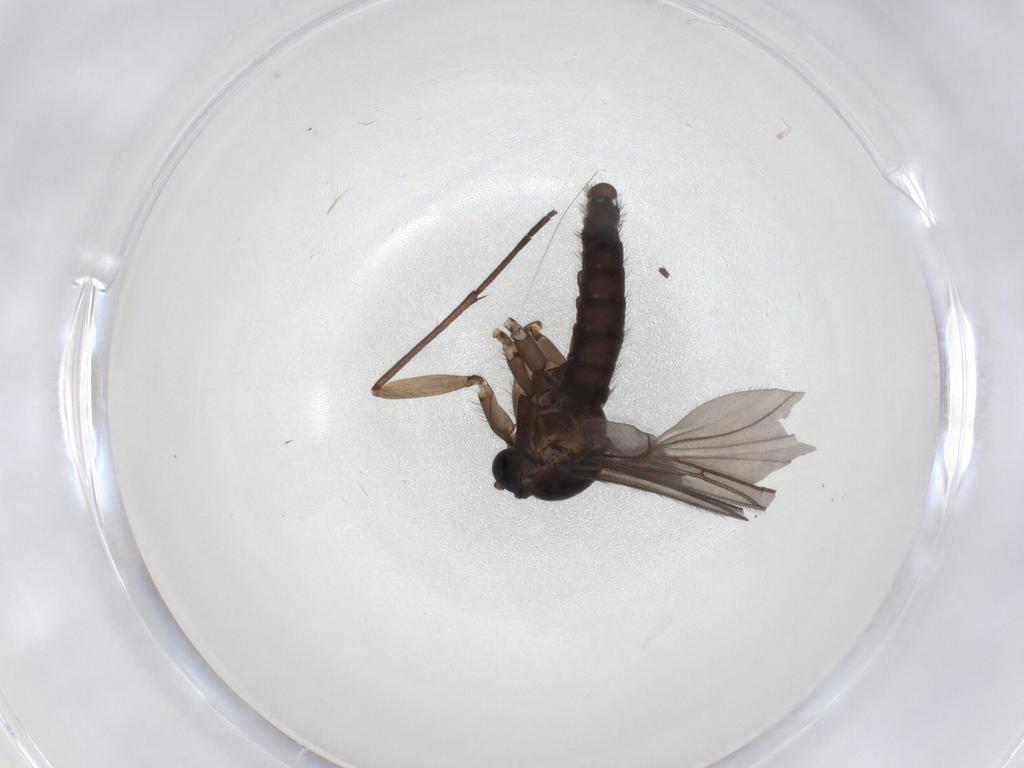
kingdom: Animalia
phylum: Arthropoda
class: Insecta
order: Diptera
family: Sciaridae
